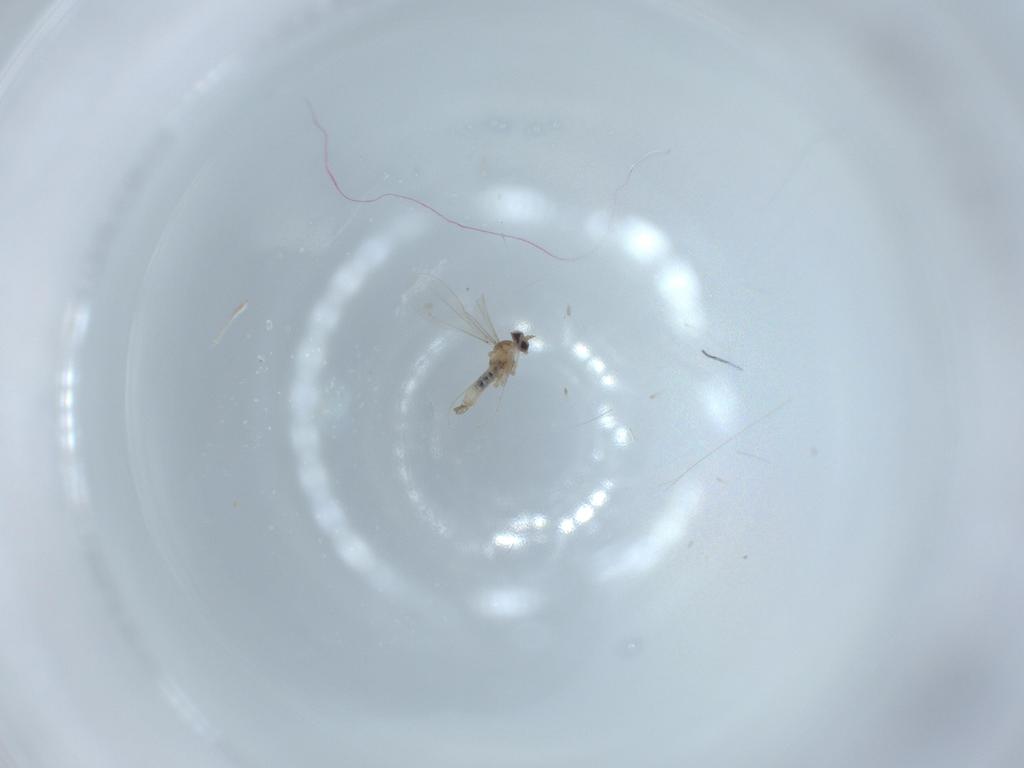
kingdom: Animalia
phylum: Arthropoda
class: Insecta
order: Diptera
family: Cecidomyiidae
